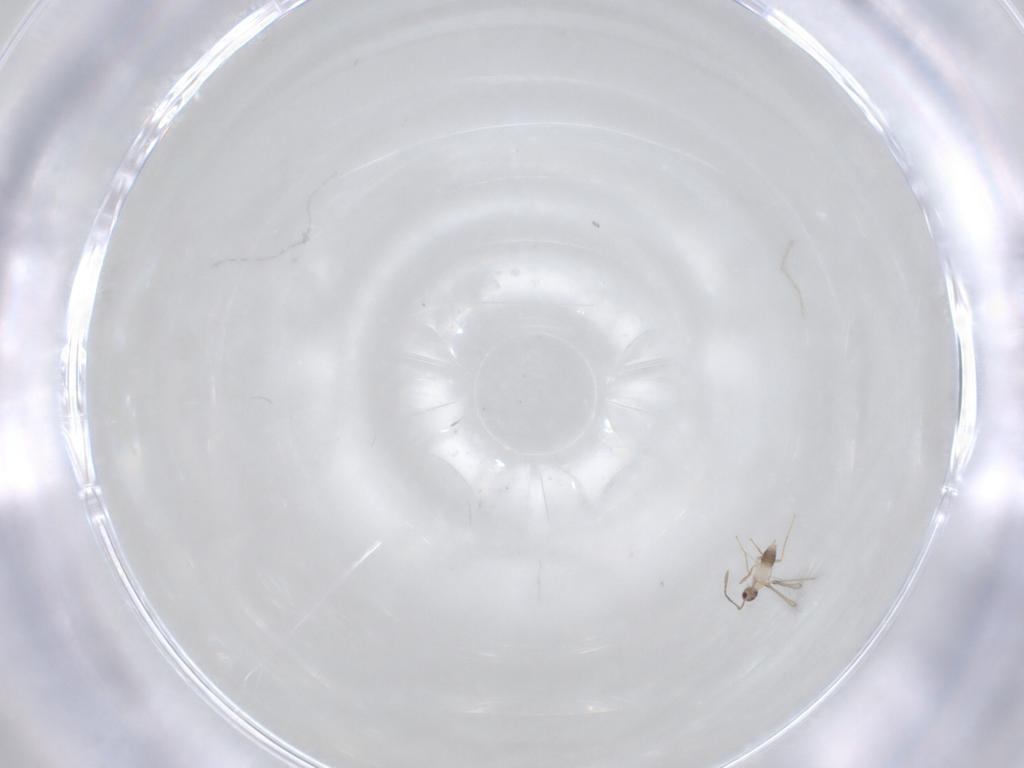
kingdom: Animalia
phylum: Arthropoda
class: Insecta
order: Hymenoptera
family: Mymaridae
